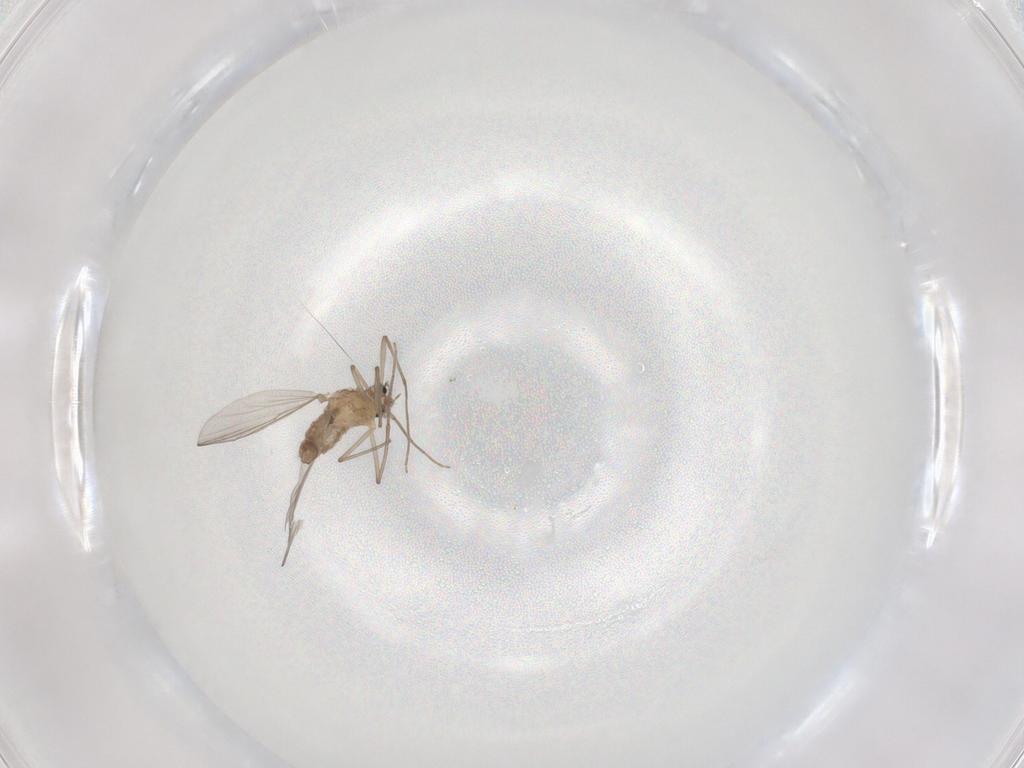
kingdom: Animalia
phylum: Arthropoda
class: Insecta
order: Diptera
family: Chironomidae
